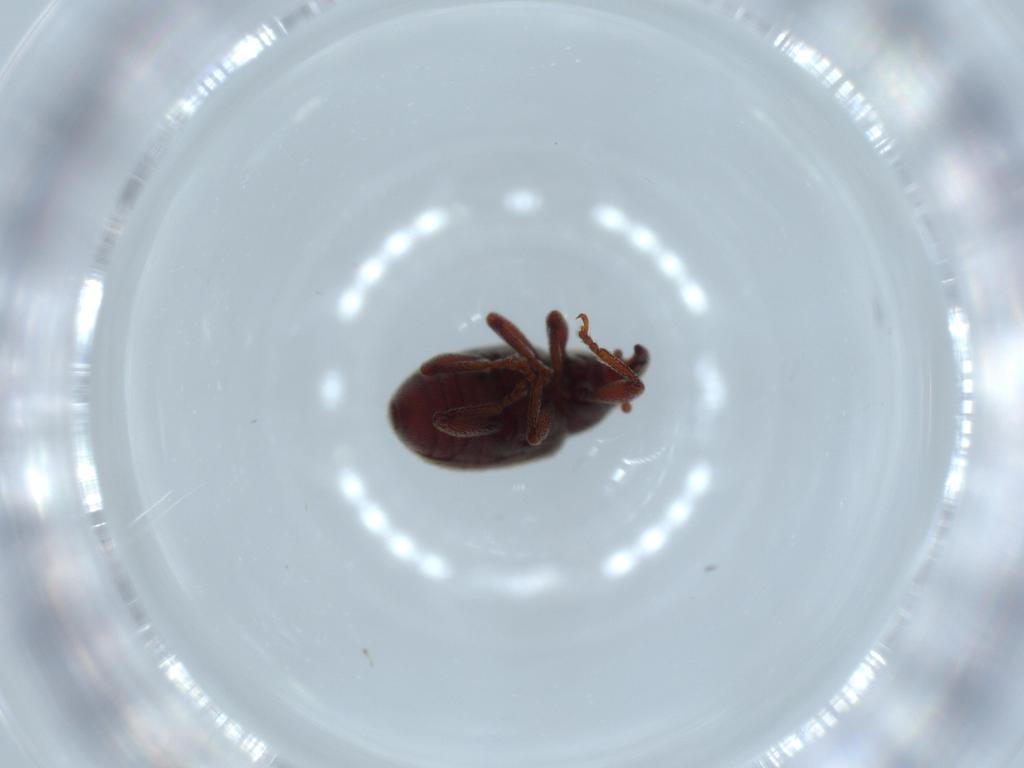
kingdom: Animalia
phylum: Arthropoda
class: Insecta
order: Coleoptera
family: Curculionidae
